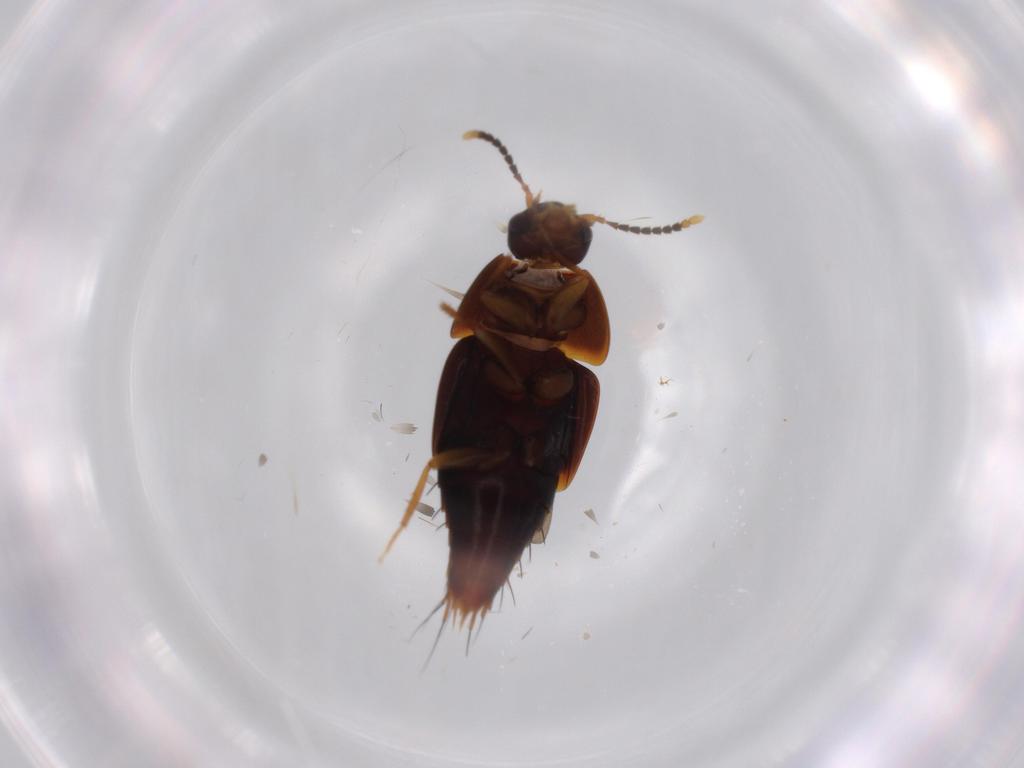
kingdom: Animalia
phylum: Arthropoda
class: Insecta
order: Coleoptera
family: Staphylinidae
